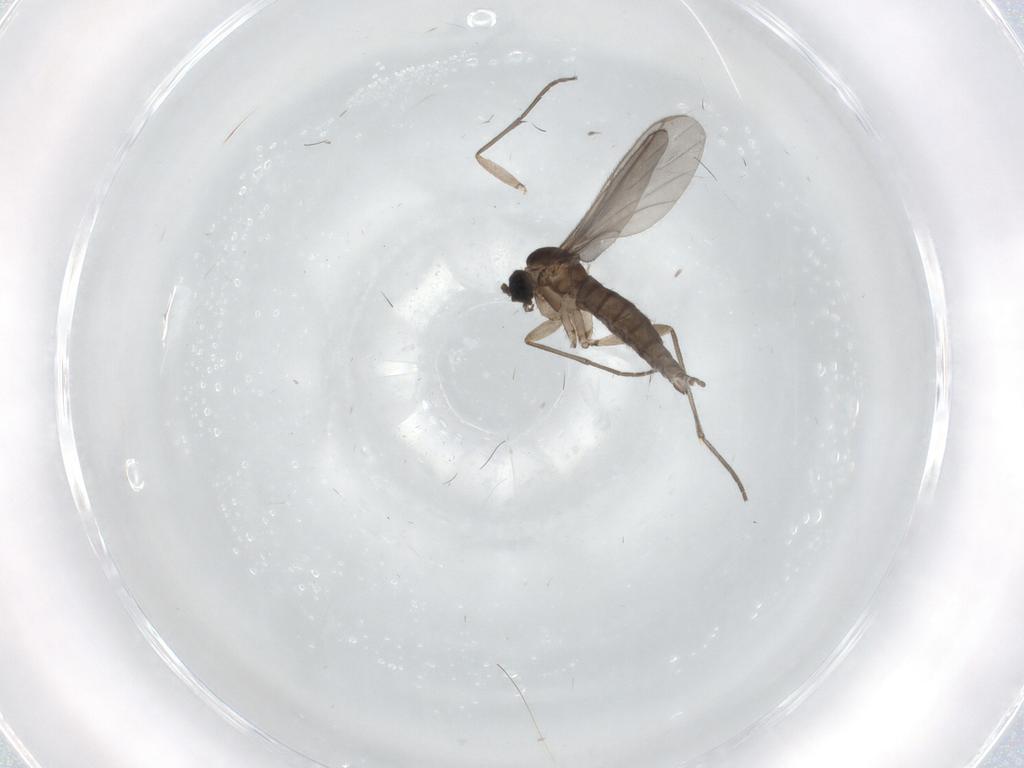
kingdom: Animalia
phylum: Arthropoda
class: Insecta
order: Diptera
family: Sciaridae
